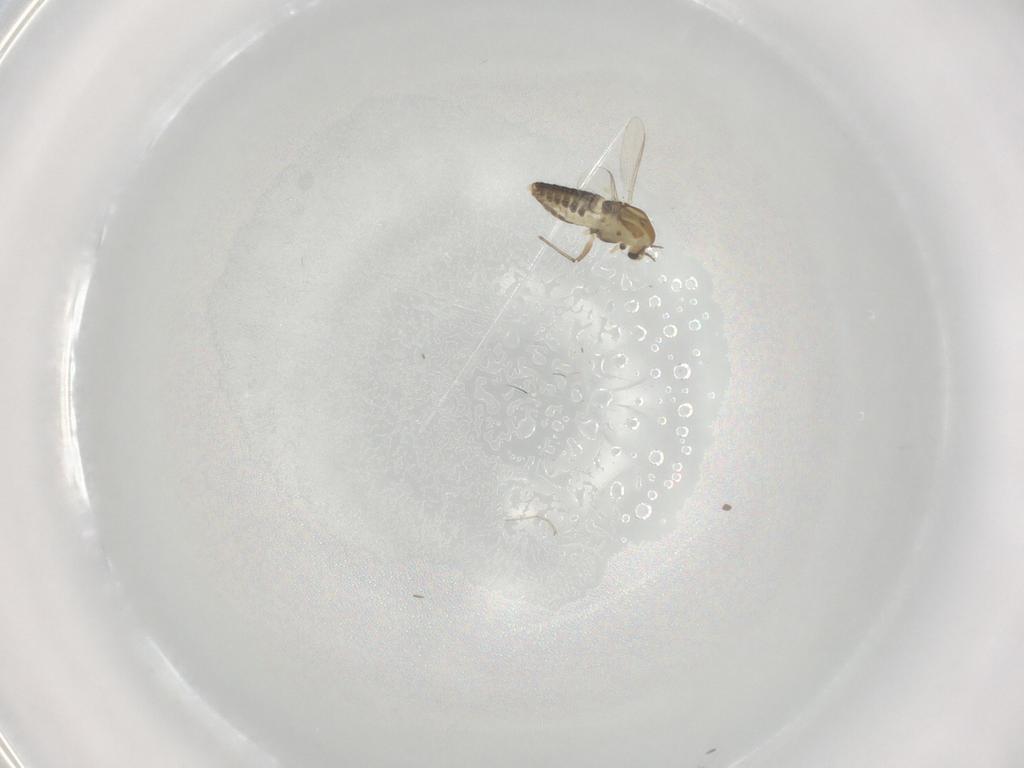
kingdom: Animalia
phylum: Arthropoda
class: Insecta
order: Diptera
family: Chironomidae
